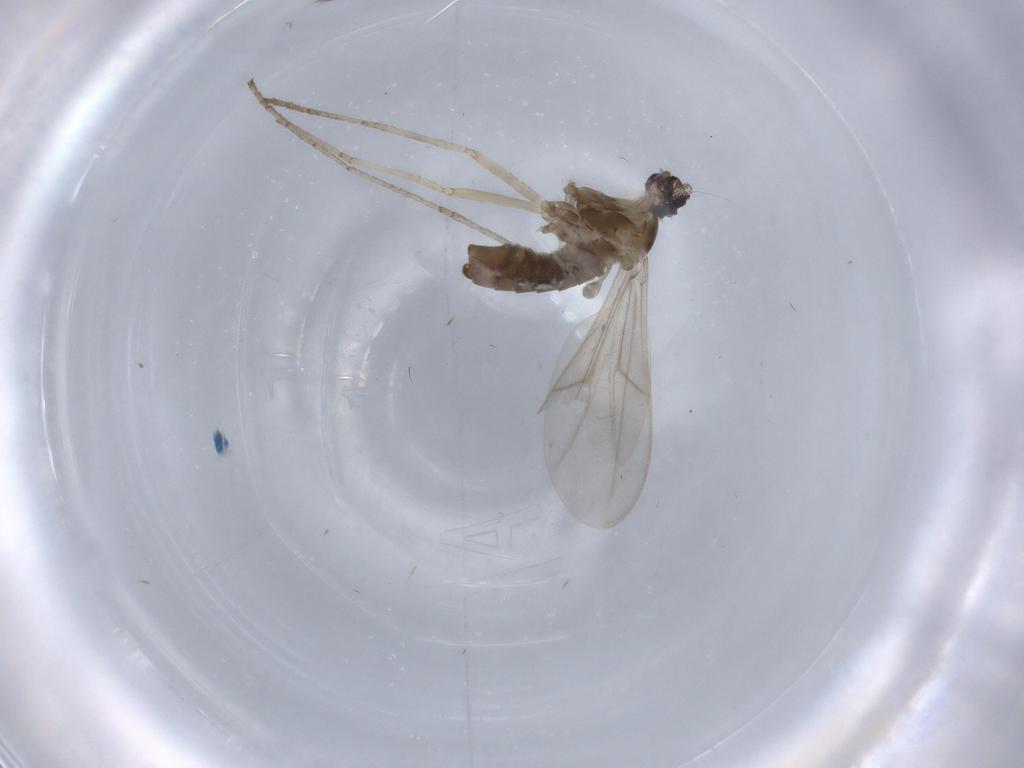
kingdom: Animalia
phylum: Arthropoda
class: Insecta
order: Diptera
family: Cecidomyiidae
